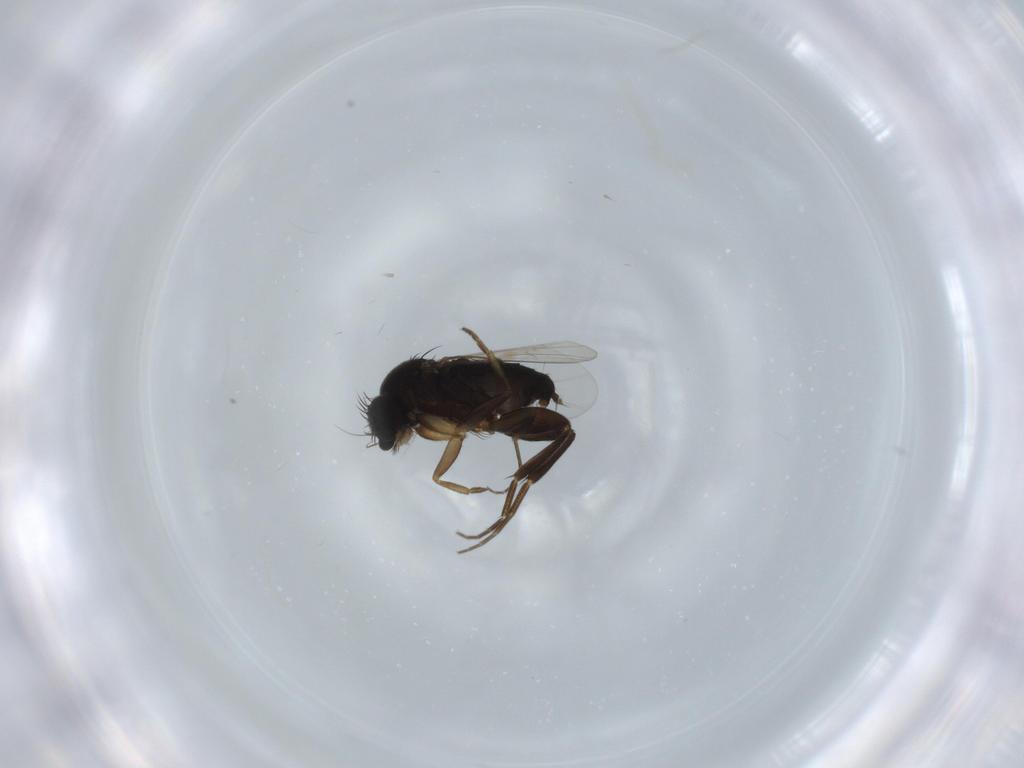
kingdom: Animalia
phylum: Arthropoda
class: Insecta
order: Diptera
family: Phoridae
